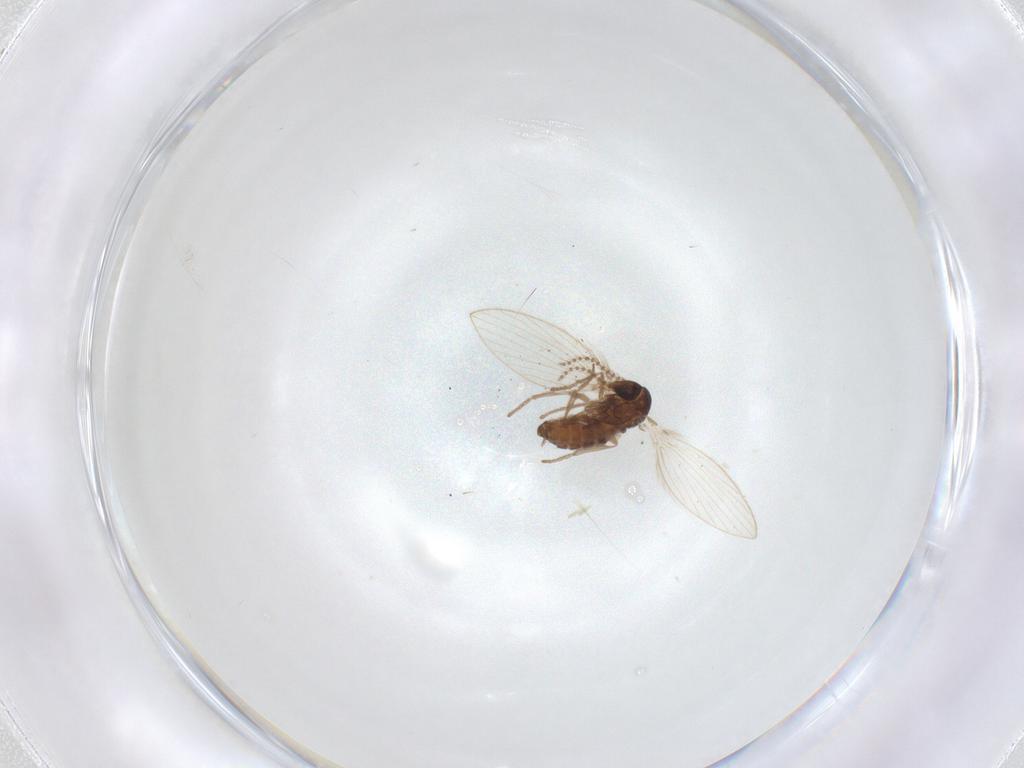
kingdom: Animalia
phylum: Arthropoda
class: Insecta
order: Diptera
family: Psychodidae
